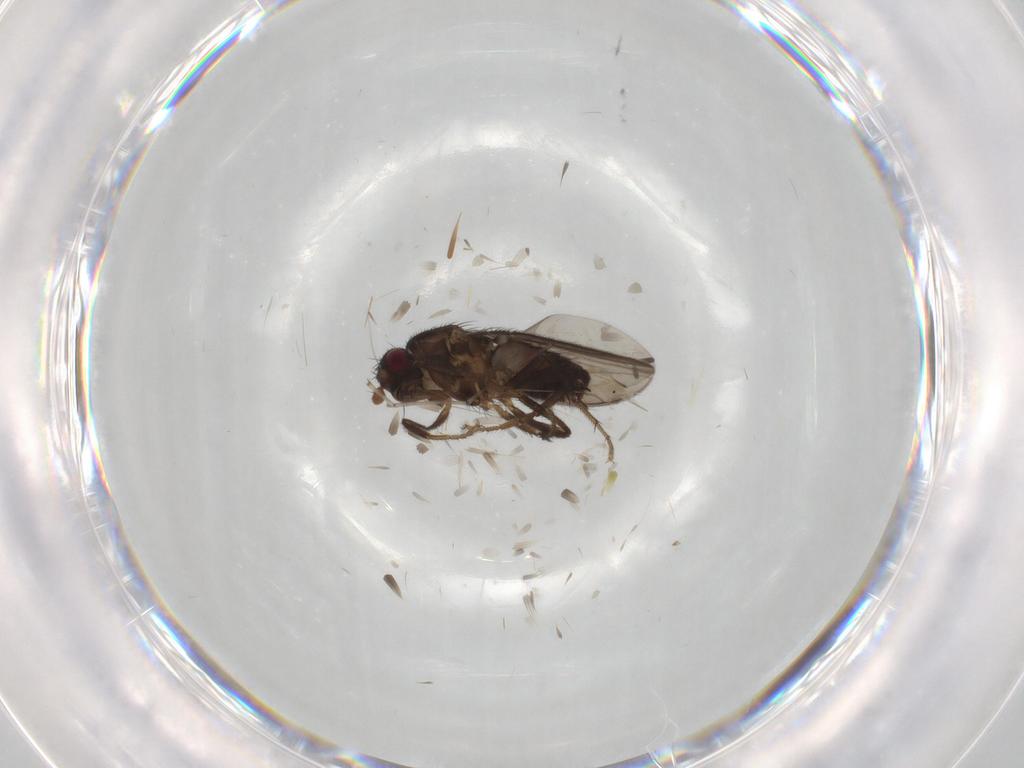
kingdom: Animalia
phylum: Arthropoda
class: Insecta
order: Diptera
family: Sphaeroceridae
